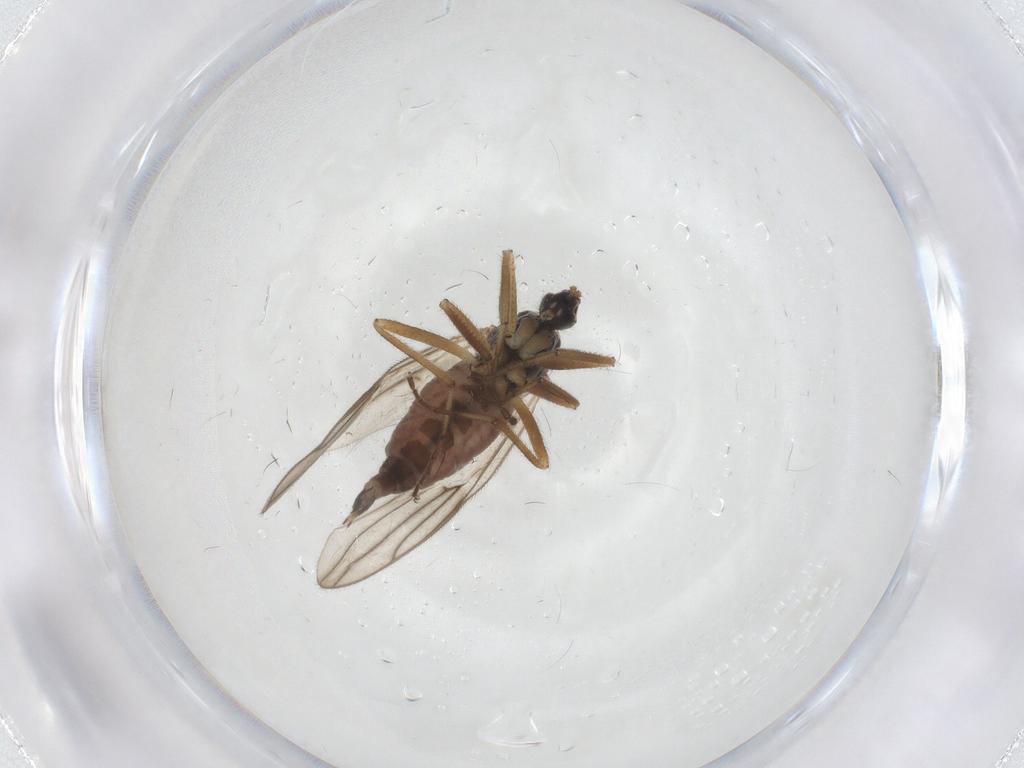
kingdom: Animalia
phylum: Arthropoda
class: Insecta
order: Diptera
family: Hybotidae
